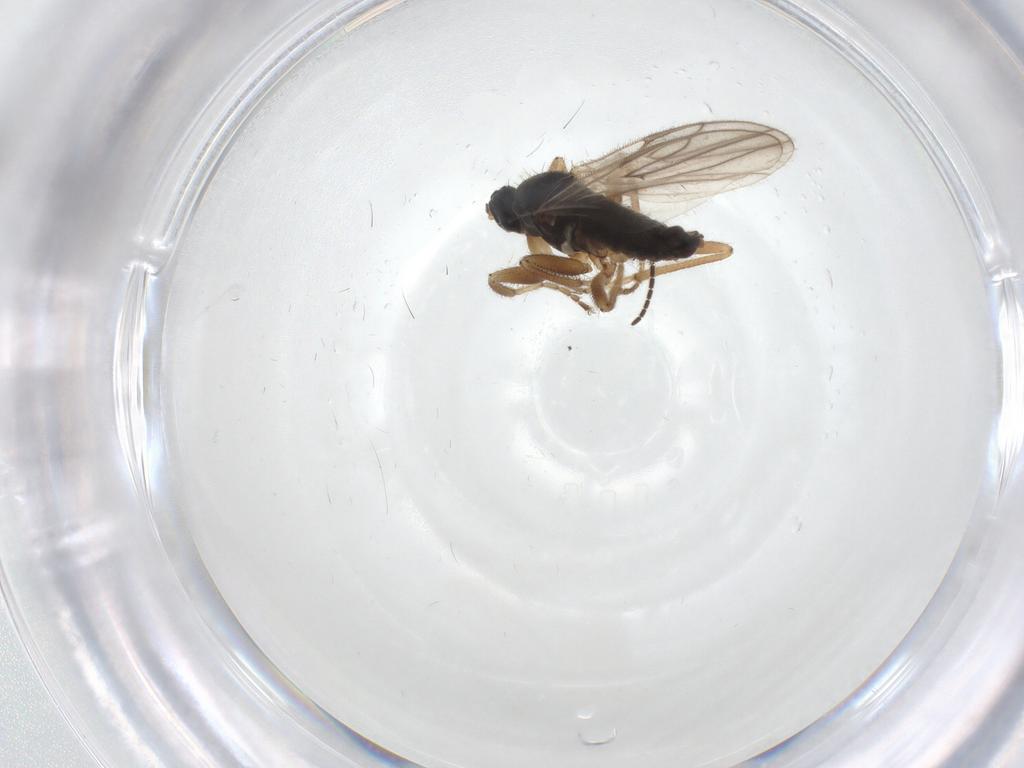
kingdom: Animalia
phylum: Arthropoda
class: Insecta
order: Diptera
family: Hybotidae
